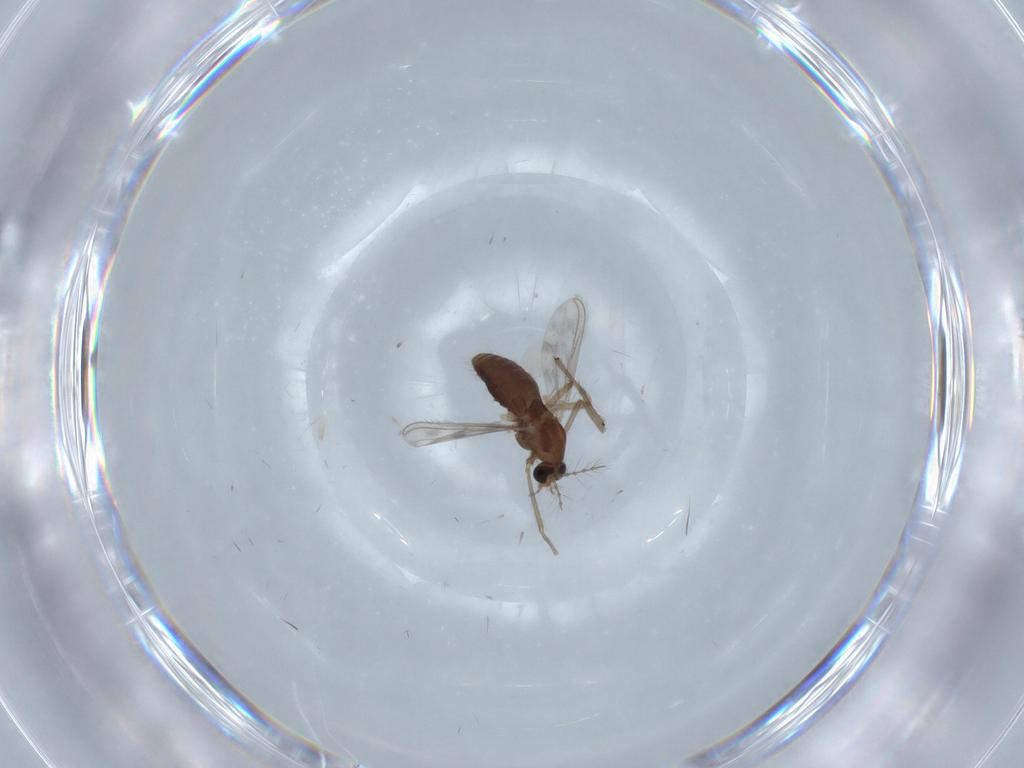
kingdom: Animalia
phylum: Arthropoda
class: Insecta
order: Diptera
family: Chironomidae
